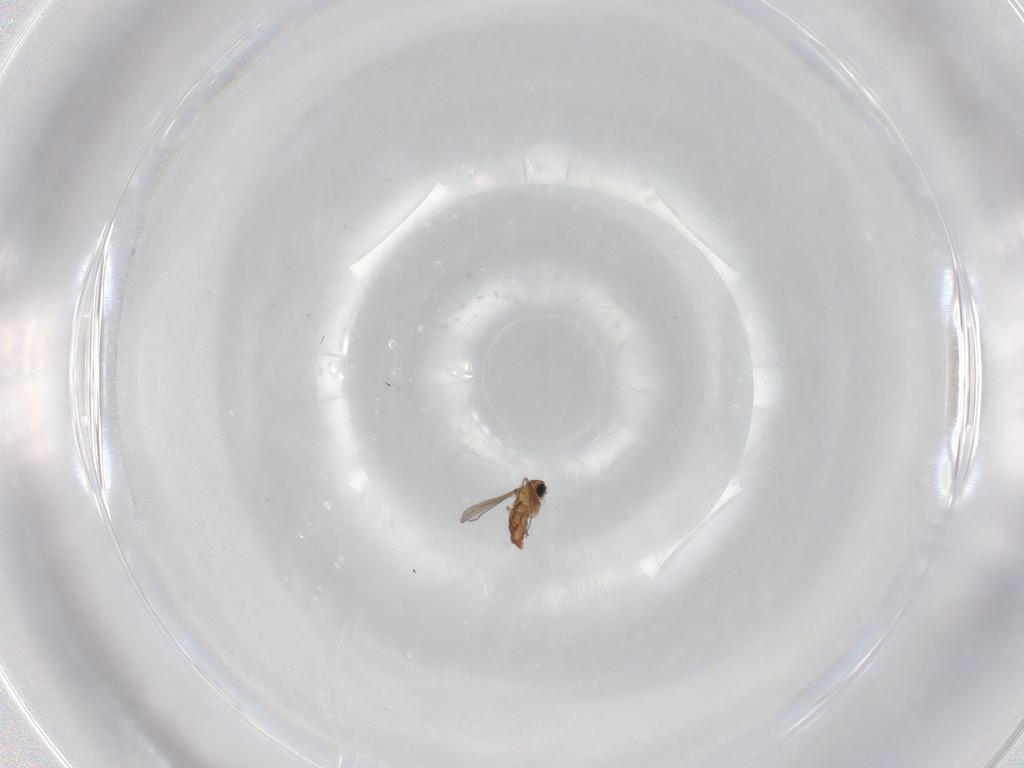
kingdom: Animalia
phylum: Arthropoda
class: Insecta
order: Diptera
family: Chironomidae
